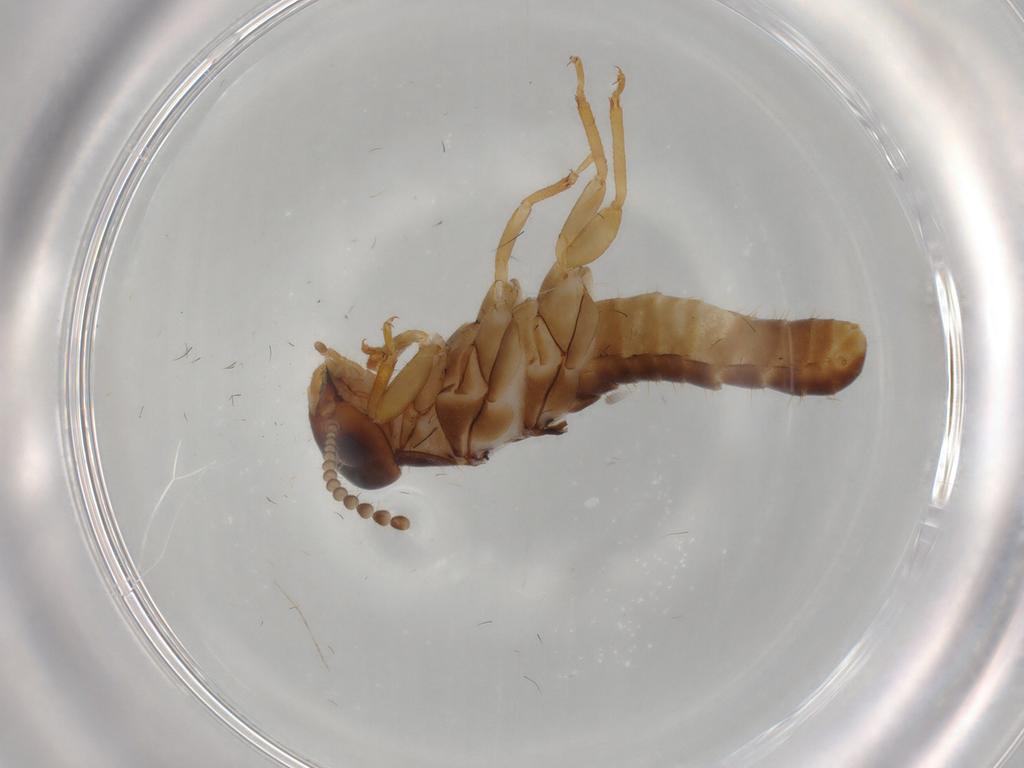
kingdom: Animalia
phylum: Arthropoda
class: Insecta
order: Blattodea
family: Kalotermitidae
